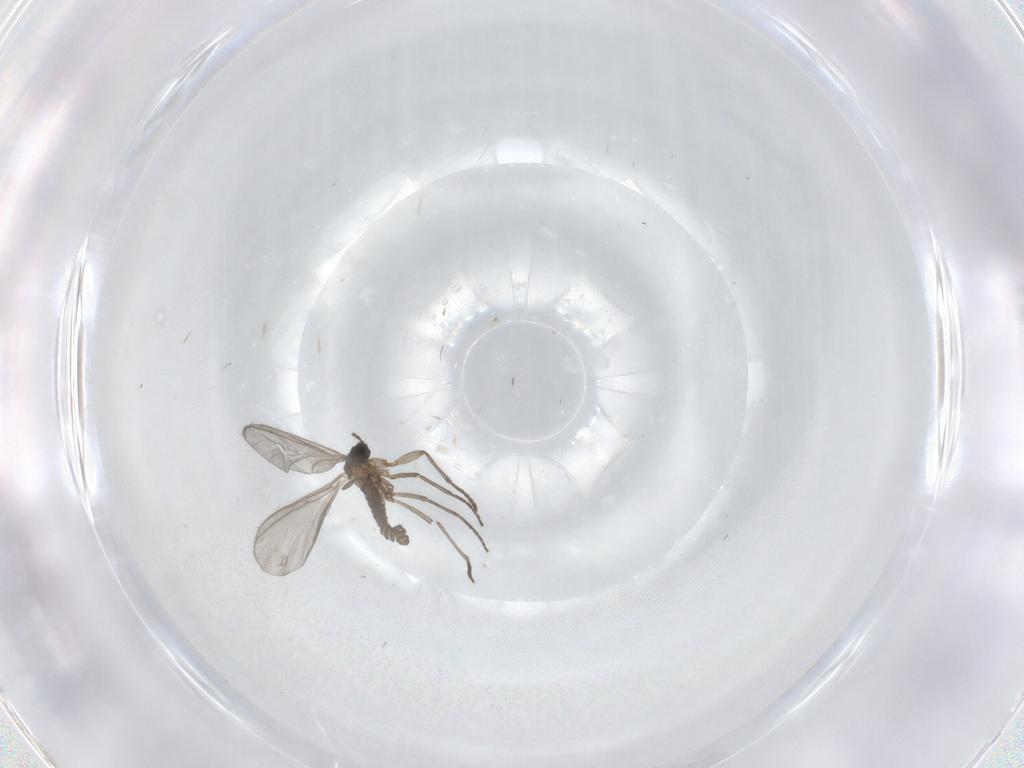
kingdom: Animalia
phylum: Arthropoda
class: Insecta
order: Diptera
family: Sciaridae
